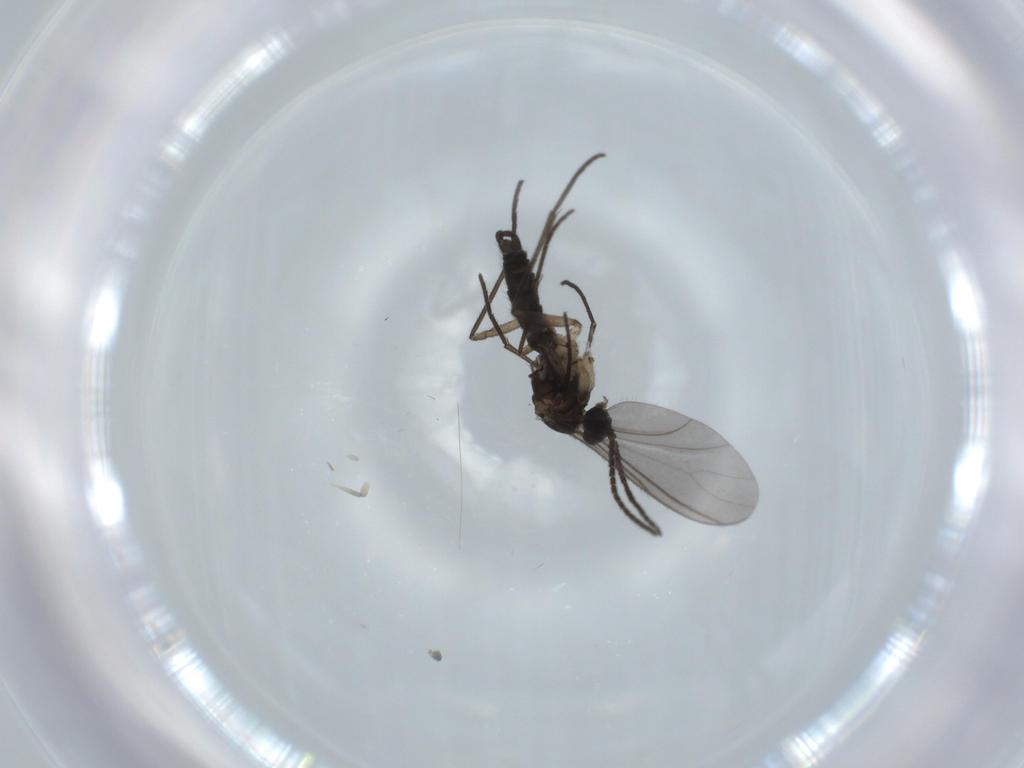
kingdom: Animalia
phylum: Arthropoda
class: Insecta
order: Diptera
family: Sciaridae
